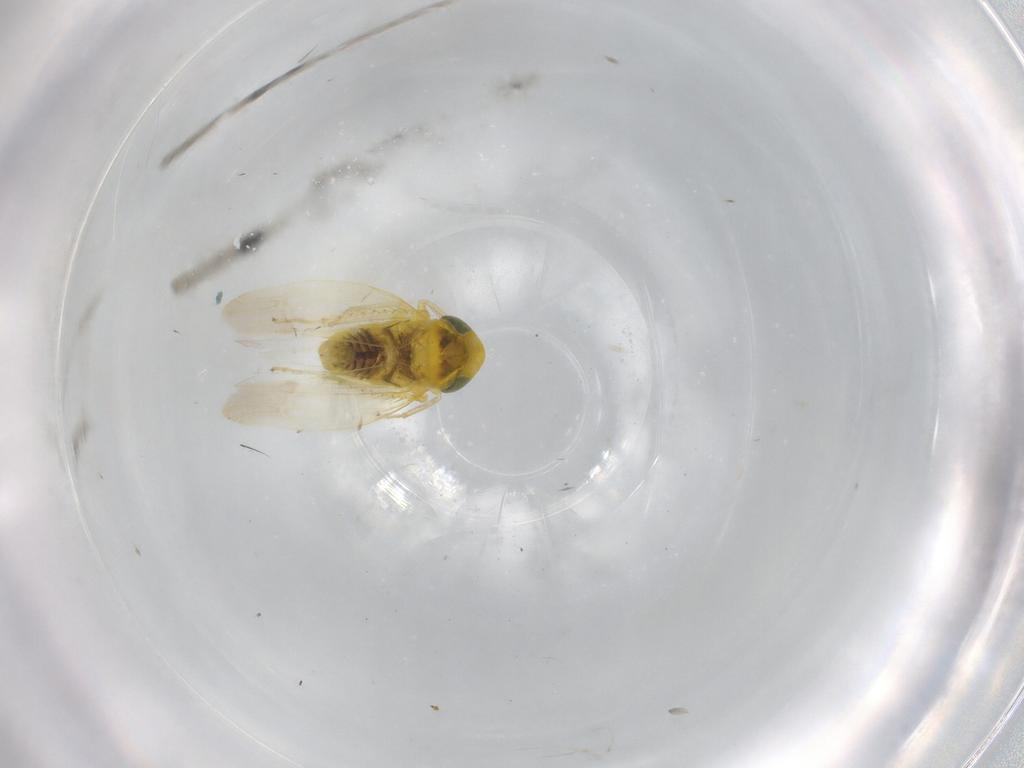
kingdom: Animalia
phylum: Arthropoda
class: Insecta
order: Hemiptera
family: Cicadellidae
